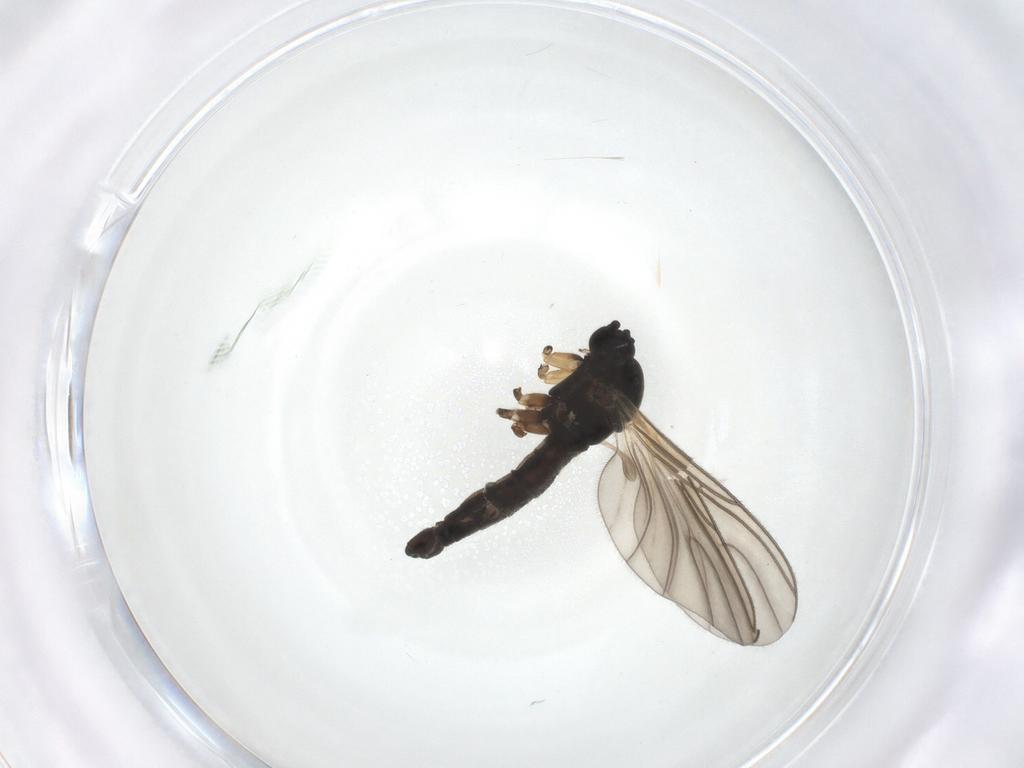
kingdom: Animalia
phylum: Arthropoda
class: Insecta
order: Diptera
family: Sciaridae
